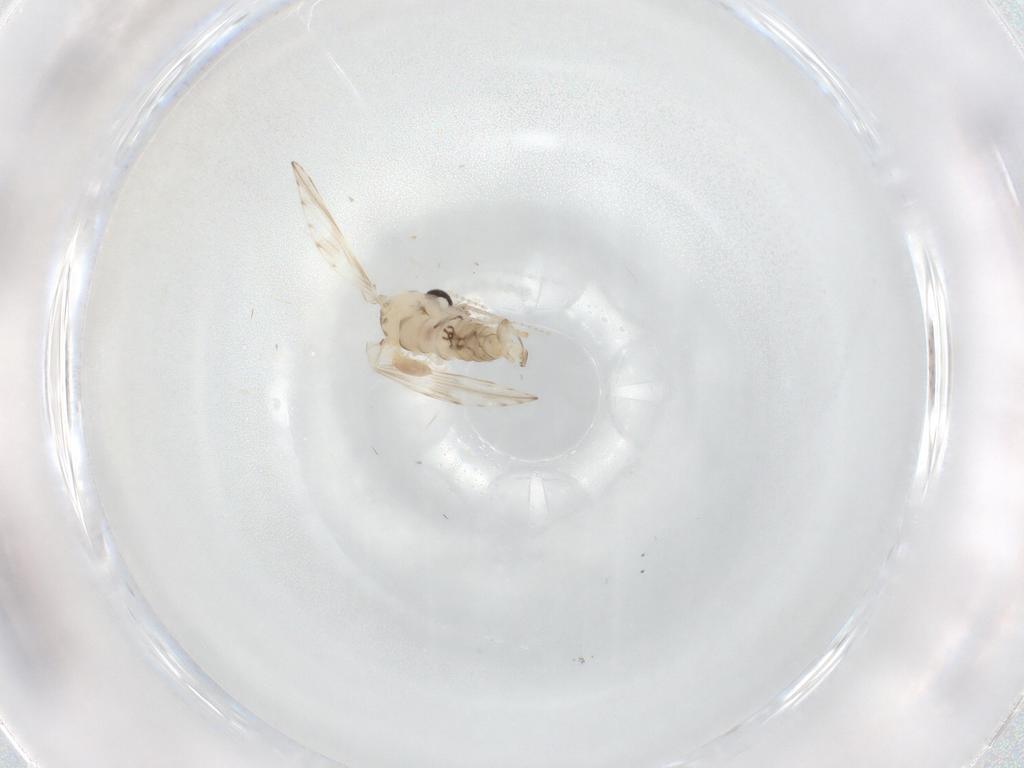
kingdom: Animalia
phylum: Arthropoda
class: Insecta
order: Diptera
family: Psychodidae
